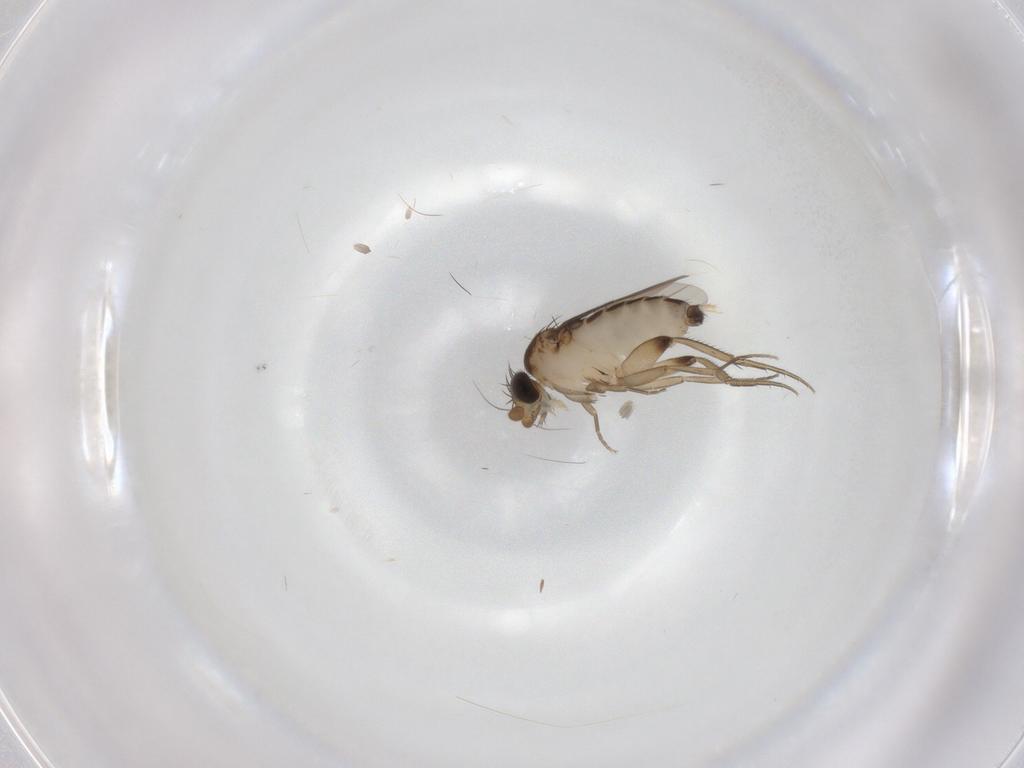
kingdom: Animalia
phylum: Arthropoda
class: Insecta
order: Diptera
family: Phoridae
